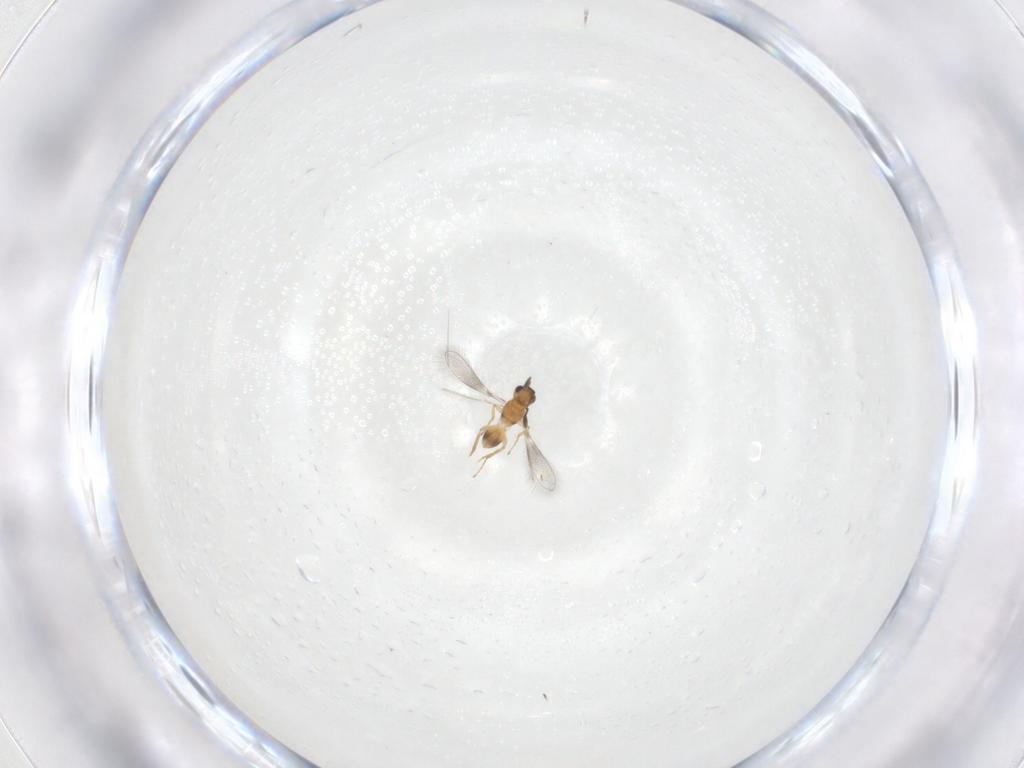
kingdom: Animalia
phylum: Arthropoda
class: Insecta
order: Hymenoptera
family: Mymaridae
